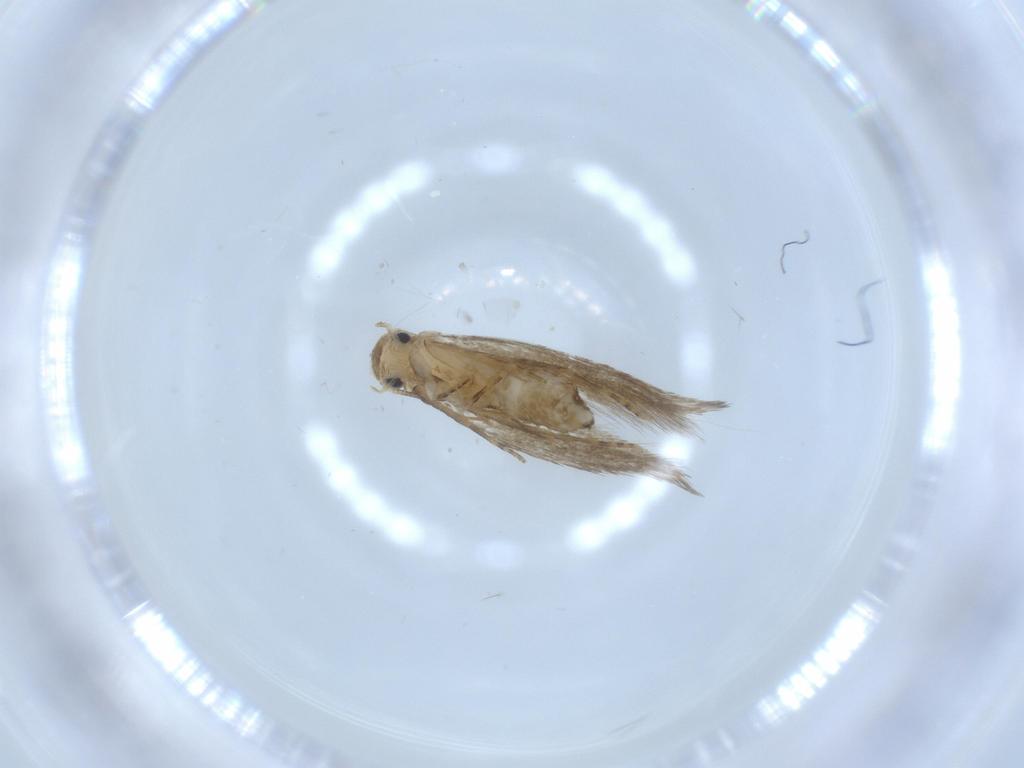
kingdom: Animalia
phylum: Arthropoda
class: Insecta
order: Lepidoptera
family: Tineidae
